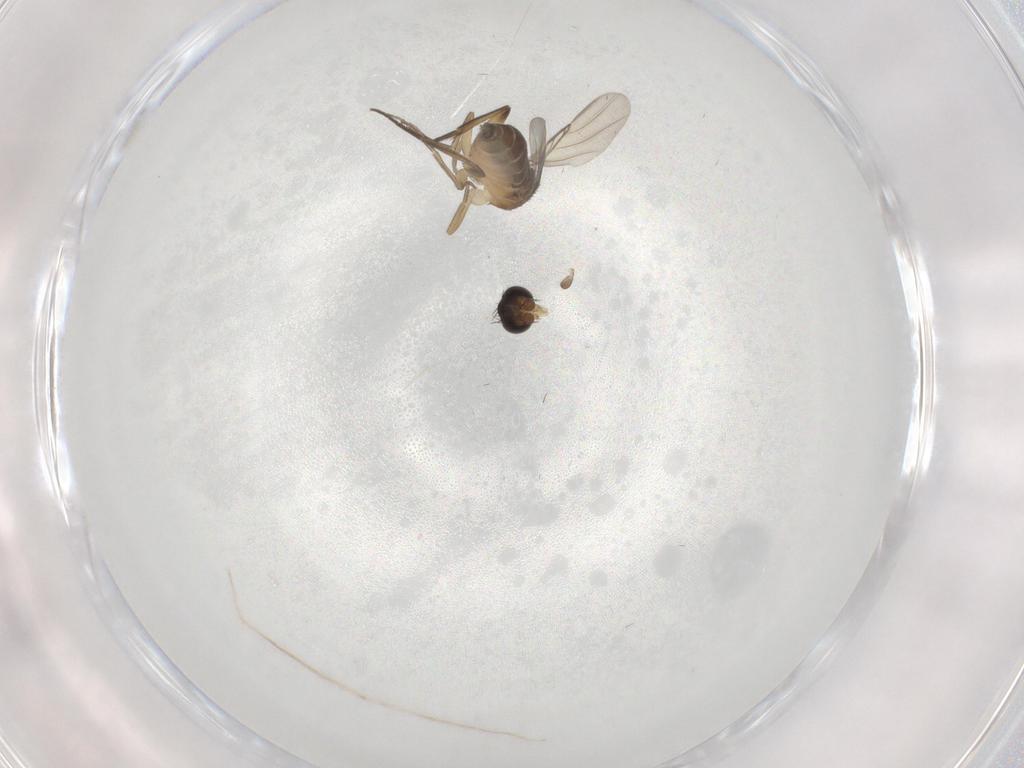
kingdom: Animalia
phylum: Arthropoda
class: Insecta
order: Diptera
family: Phoridae
